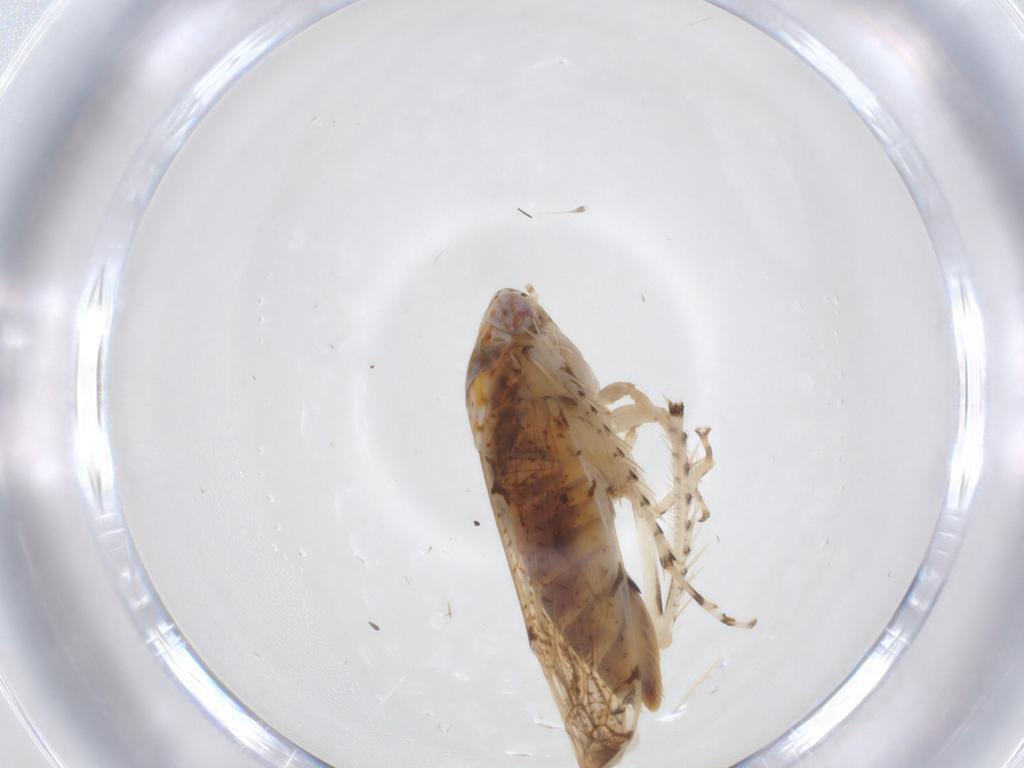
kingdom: Animalia
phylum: Arthropoda
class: Insecta
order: Hemiptera
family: Cicadellidae
